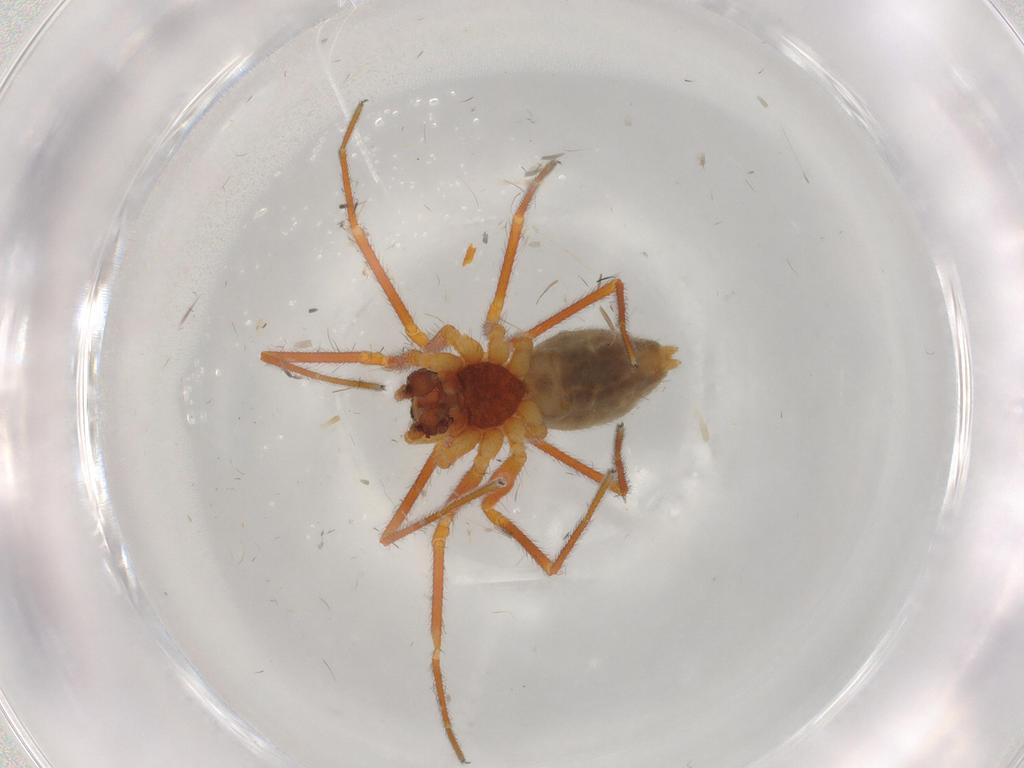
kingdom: Animalia
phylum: Arthropoda
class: Arachnida
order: Araneae
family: Linyphiidae
